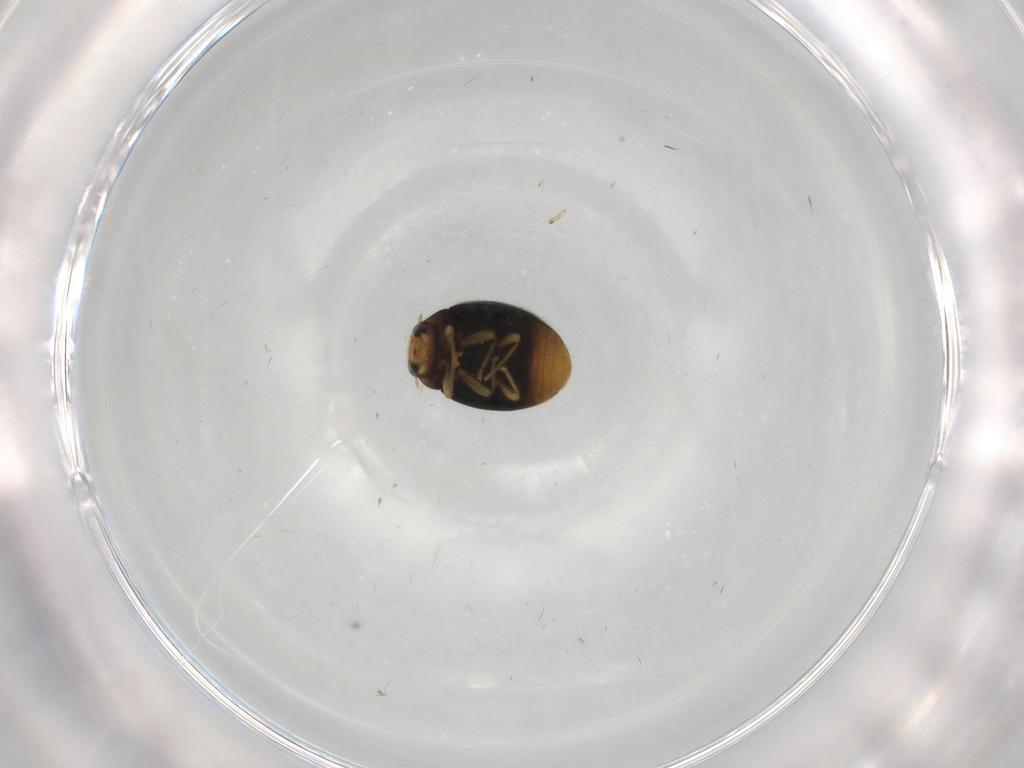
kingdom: Animalia
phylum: Arthropoda
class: Insecta
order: Coleoptera
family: Coccinellidae
